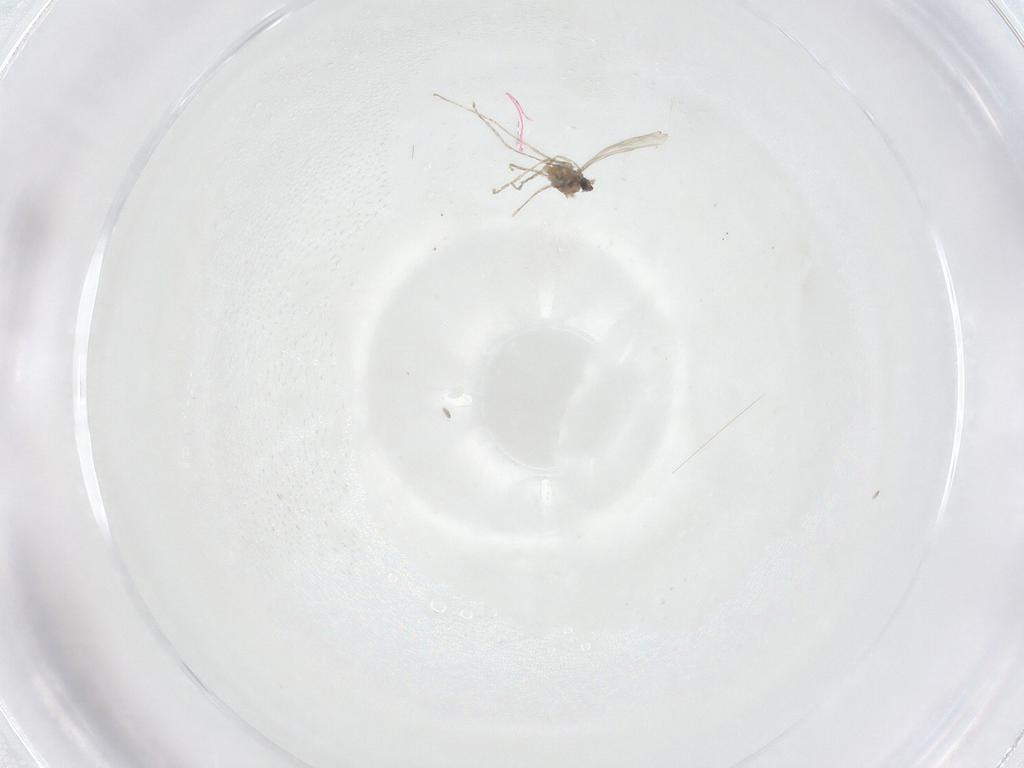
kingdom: Animalia
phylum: Arthropoda
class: Insecta
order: Diptera
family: Cecidomyiidae
